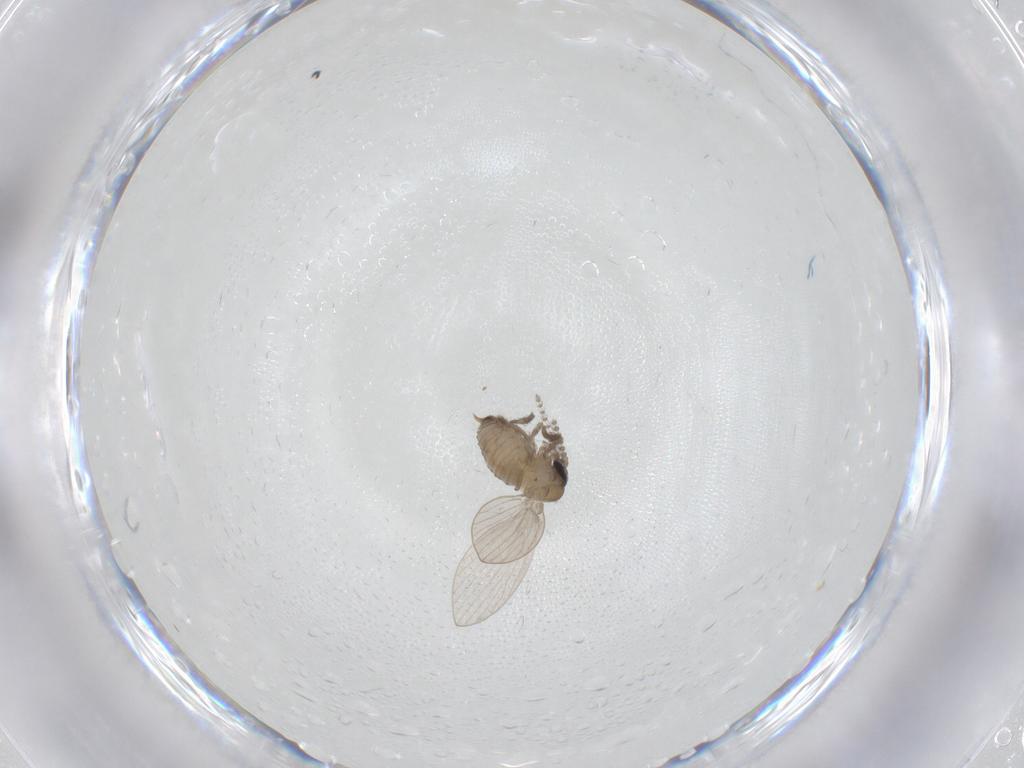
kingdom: Animalia
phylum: Arthropoda
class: Insecta
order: Diptera
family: Psychodidae
